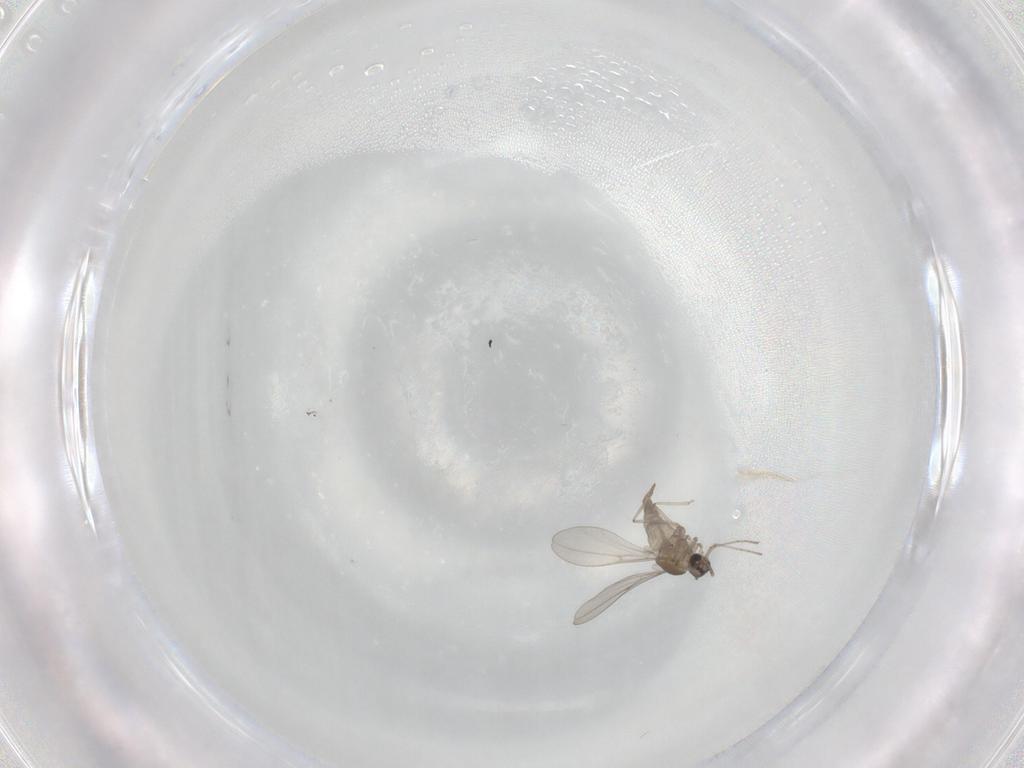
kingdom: Animalia
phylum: Arthropoda
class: Insecta
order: Diptera
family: Cecidomyiidae
